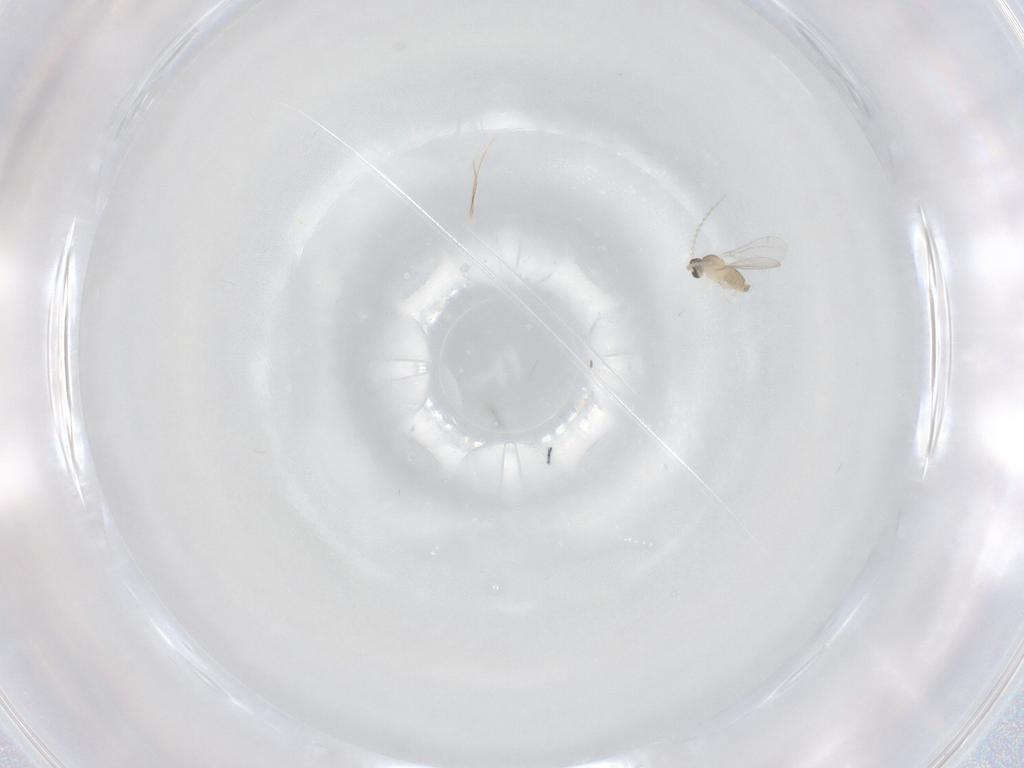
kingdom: Animalia
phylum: Arthropoda
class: Insecta
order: Diptera
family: Cecidomyiidae
